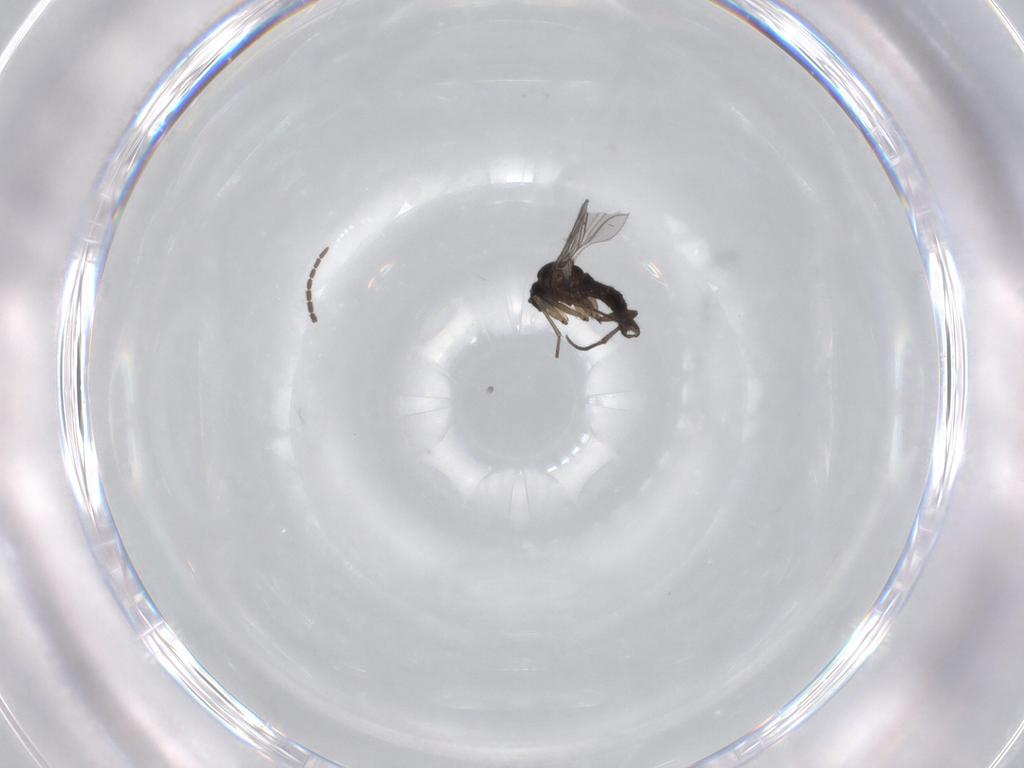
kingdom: Animalia
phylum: Arthropoda
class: Insecta
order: Diptera
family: Sciaridae
